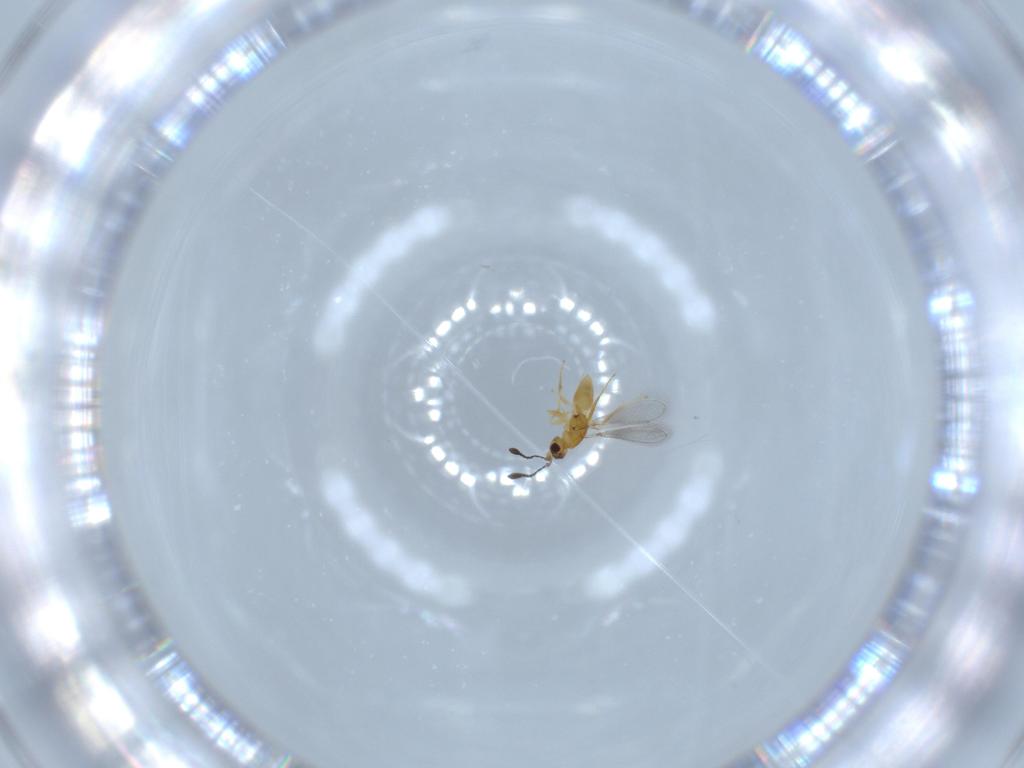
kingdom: Animalia
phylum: Arthropoda
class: Insecta
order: Hymenoptera
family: Mymaridae
